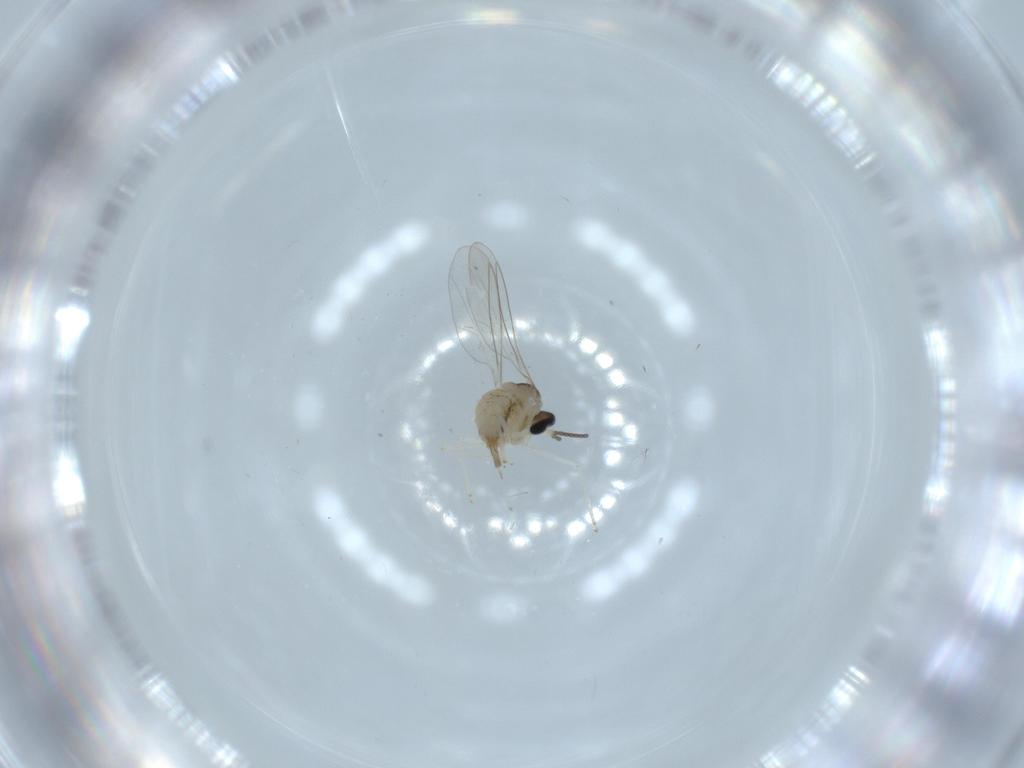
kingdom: Animalia
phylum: Arthropoda
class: Insecta
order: Diptera
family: Cecidomyiidae
